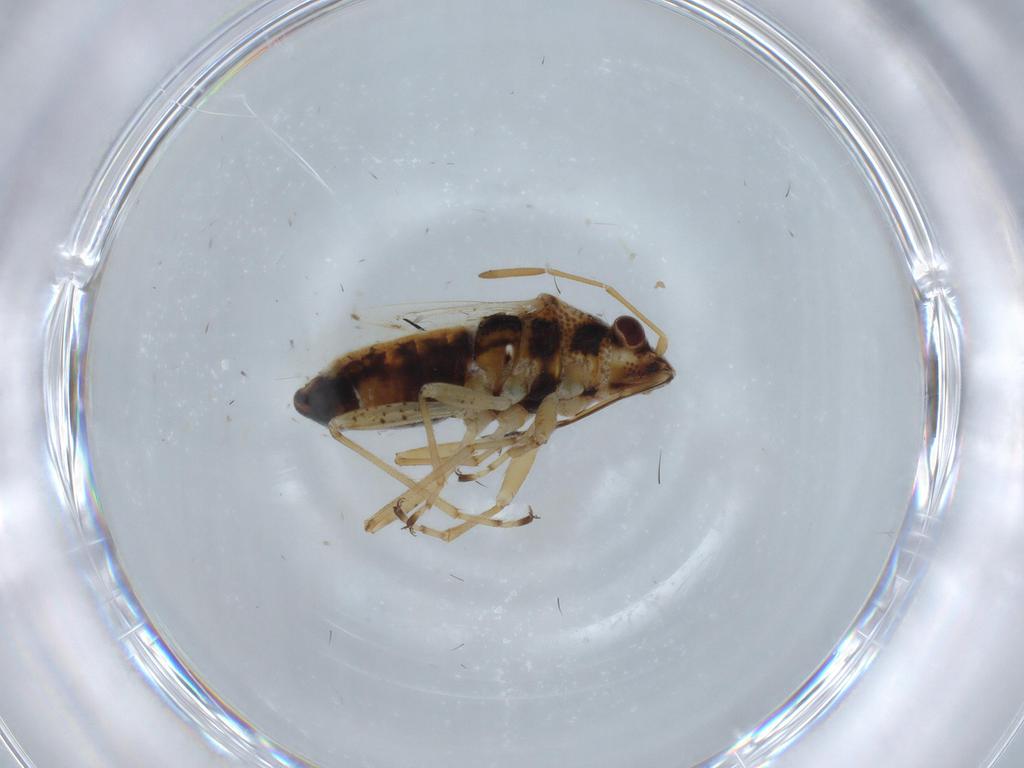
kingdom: Animalia
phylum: Arthropoda
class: Insecta
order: Hemiptera
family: Lygaeidae
